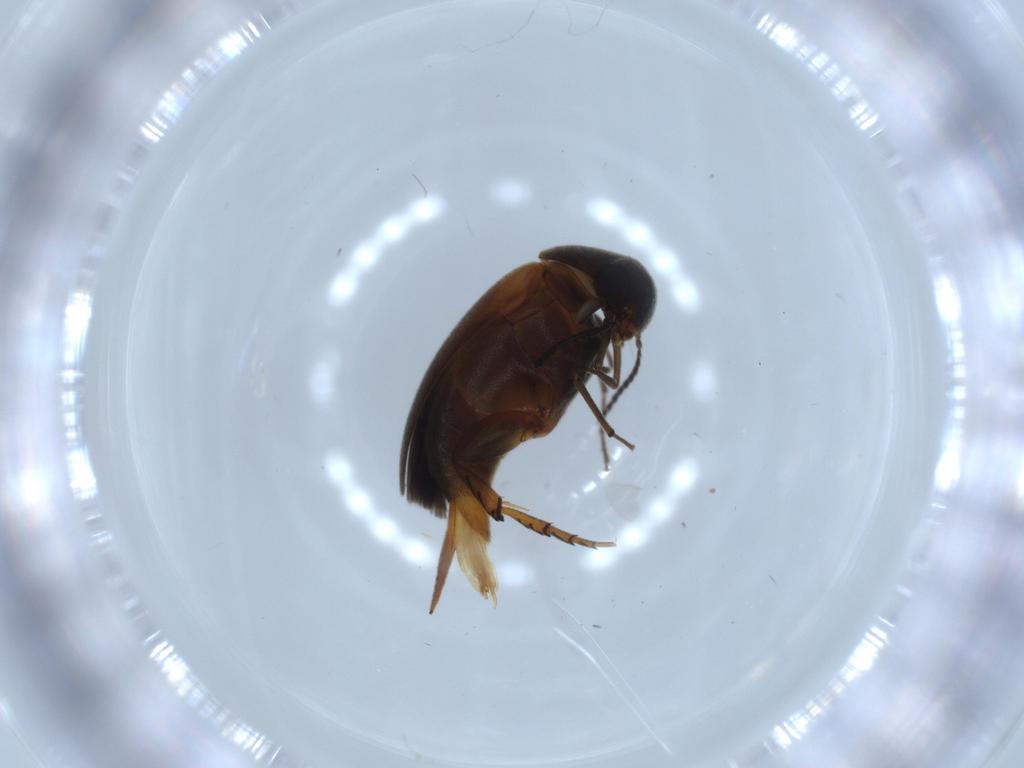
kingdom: Animalia
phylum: Arthropoda
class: Insecta
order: Coleoptera
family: Mordellidae
